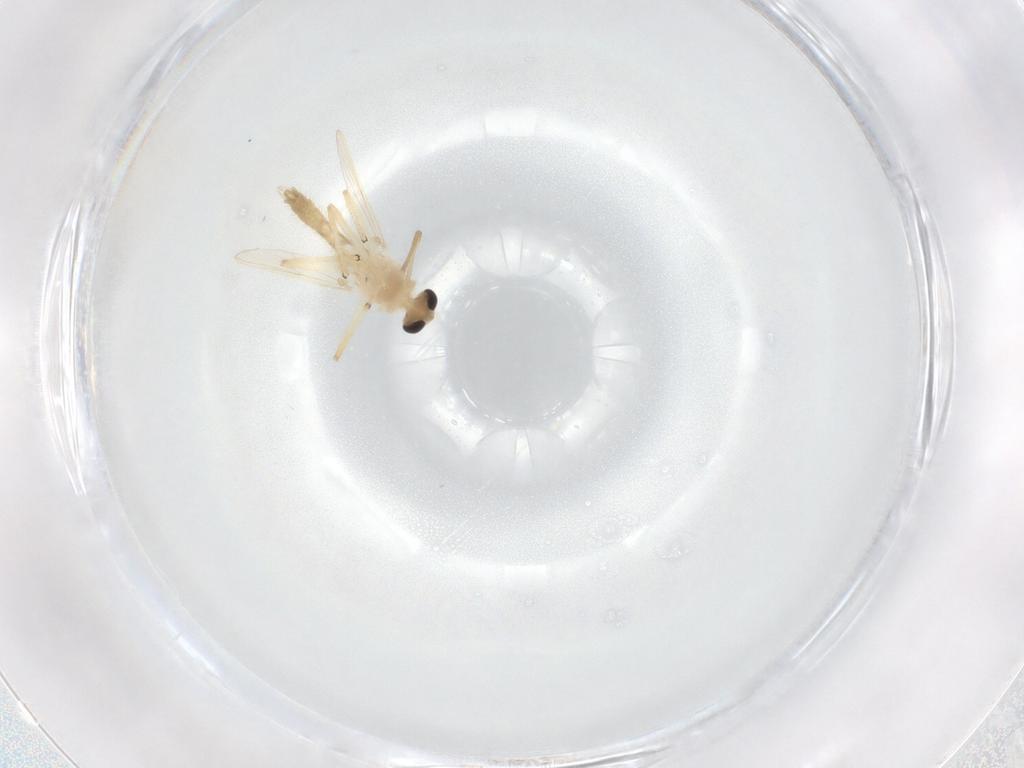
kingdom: Animalia
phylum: Arthropoda
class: Insecta
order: Diptera
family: Chironomidae
